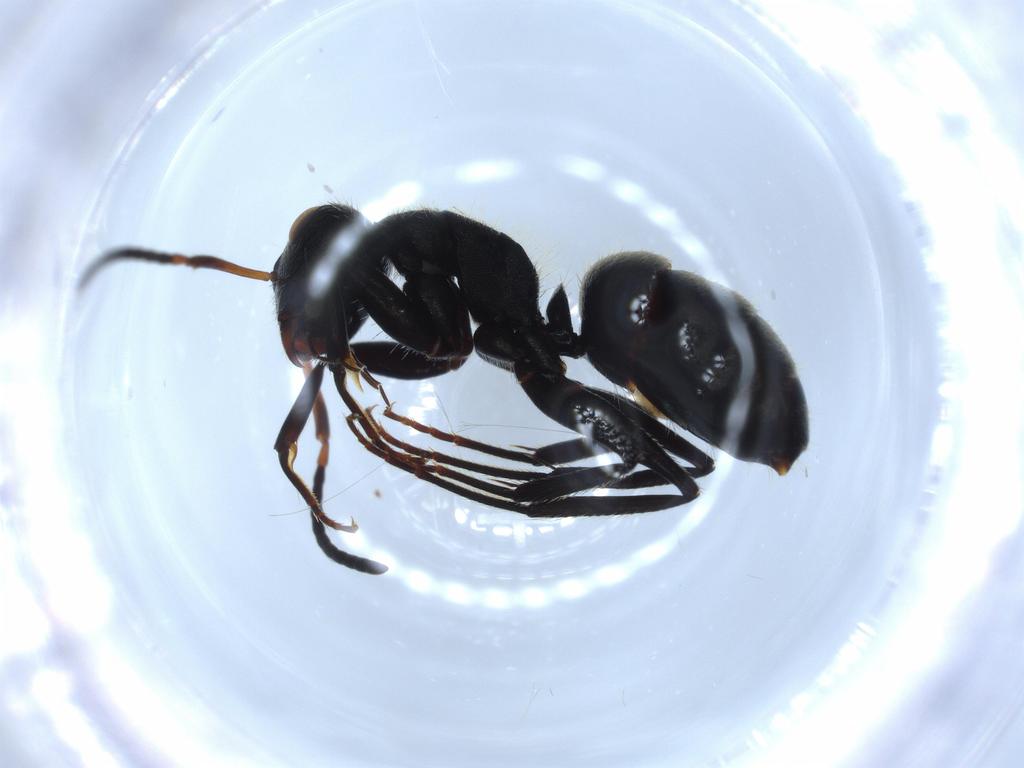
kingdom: Animalia
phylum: Arthropoda
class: Insecta
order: Hymenoptera
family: Formicidae
